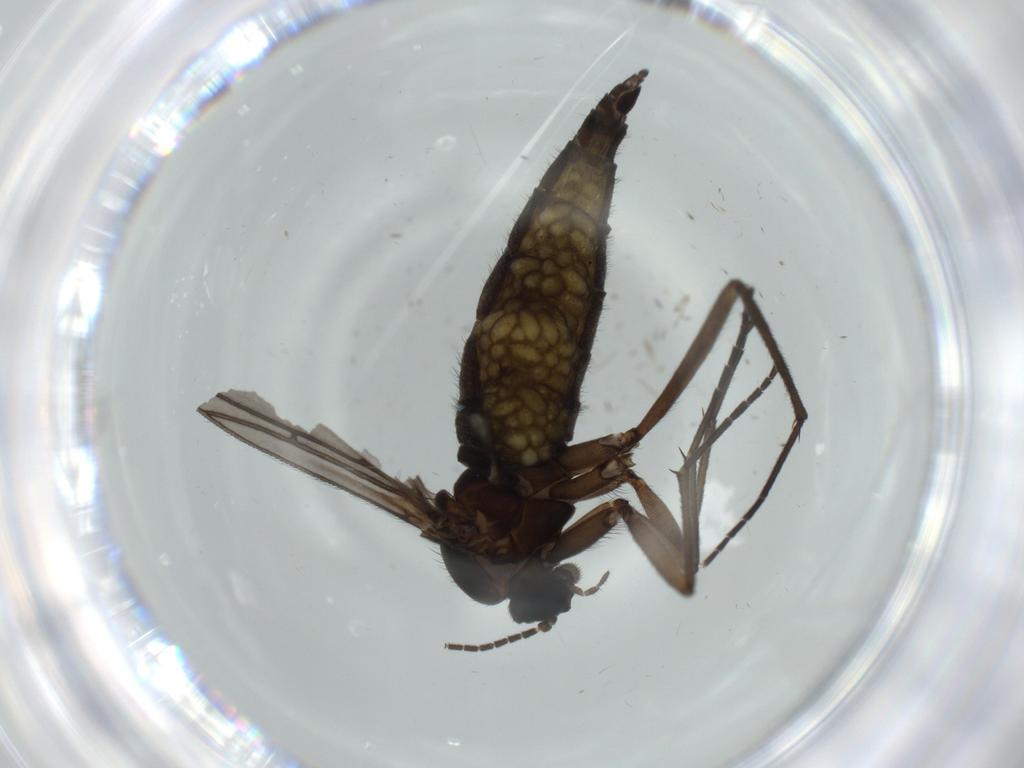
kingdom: Animalia
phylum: Arthropoda
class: Insecta
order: Diptera
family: Sciaridae
